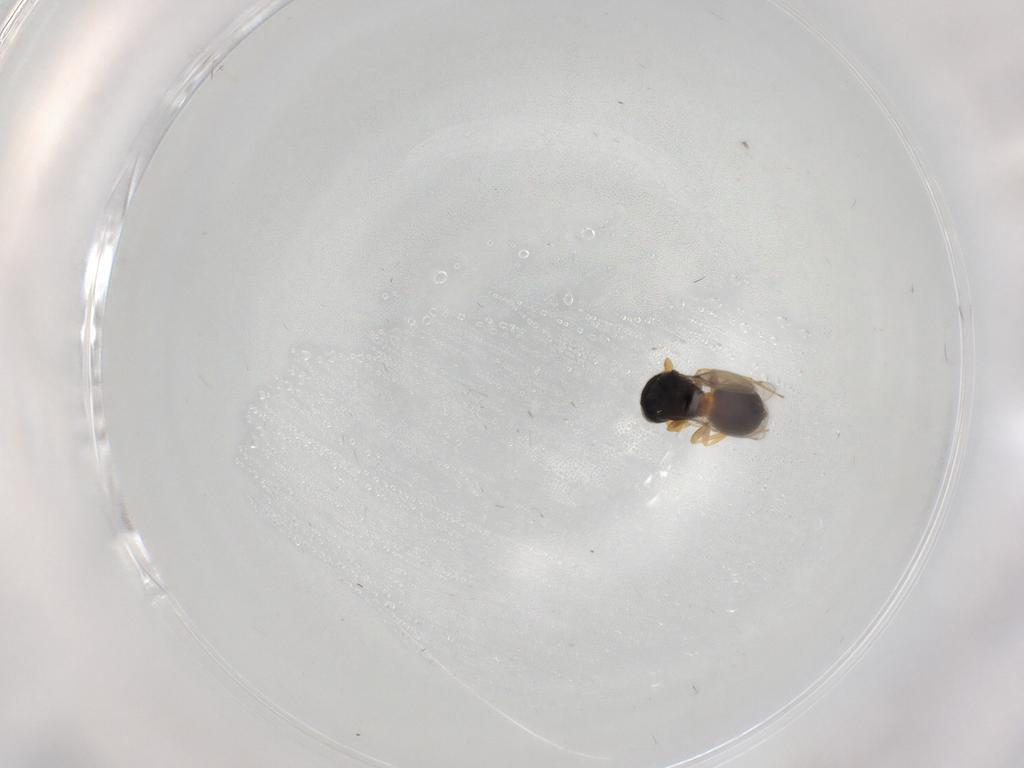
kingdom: Animalia
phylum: Arthropoda
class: Insecta
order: Hymenoptera
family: Scelionidae
